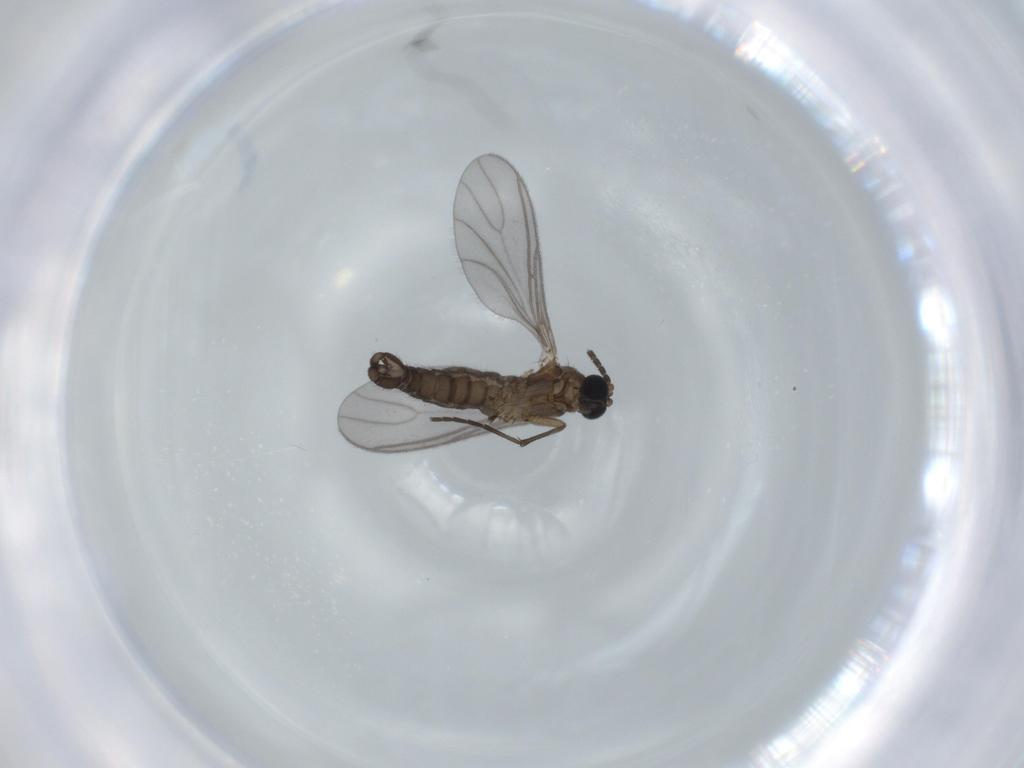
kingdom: Animalia
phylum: Arthropoda
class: Insecta
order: Diptera
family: Sciaridae
